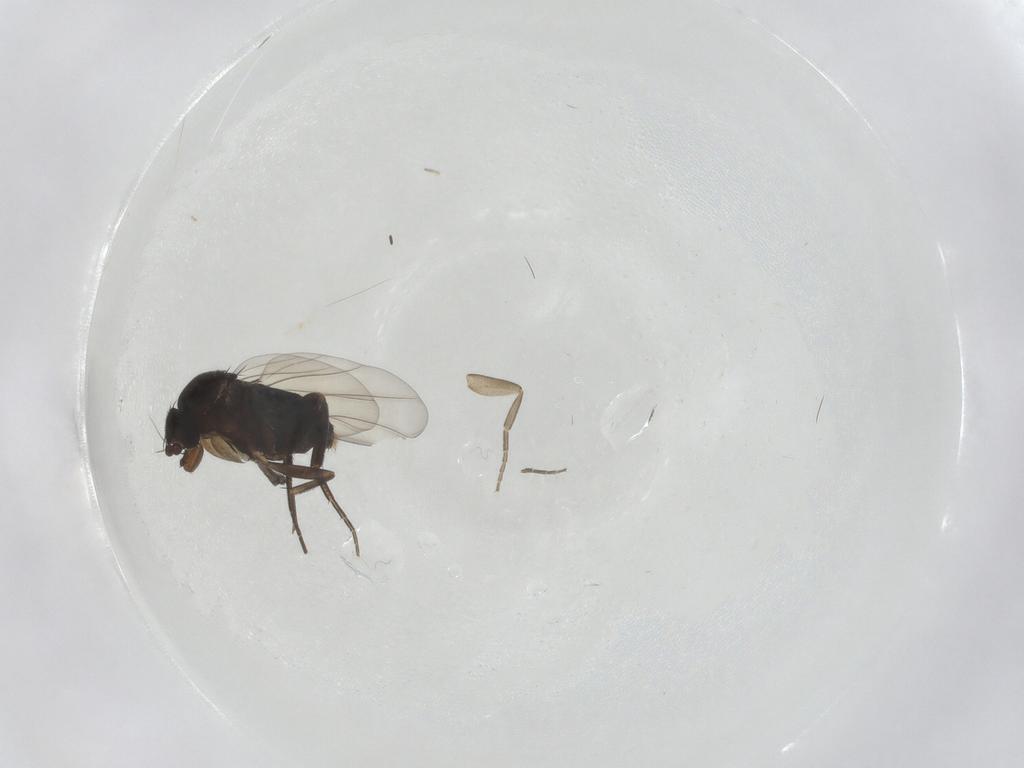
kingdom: Animalia
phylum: Arthropoda
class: Insecta
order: Diptera
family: Phoridae
